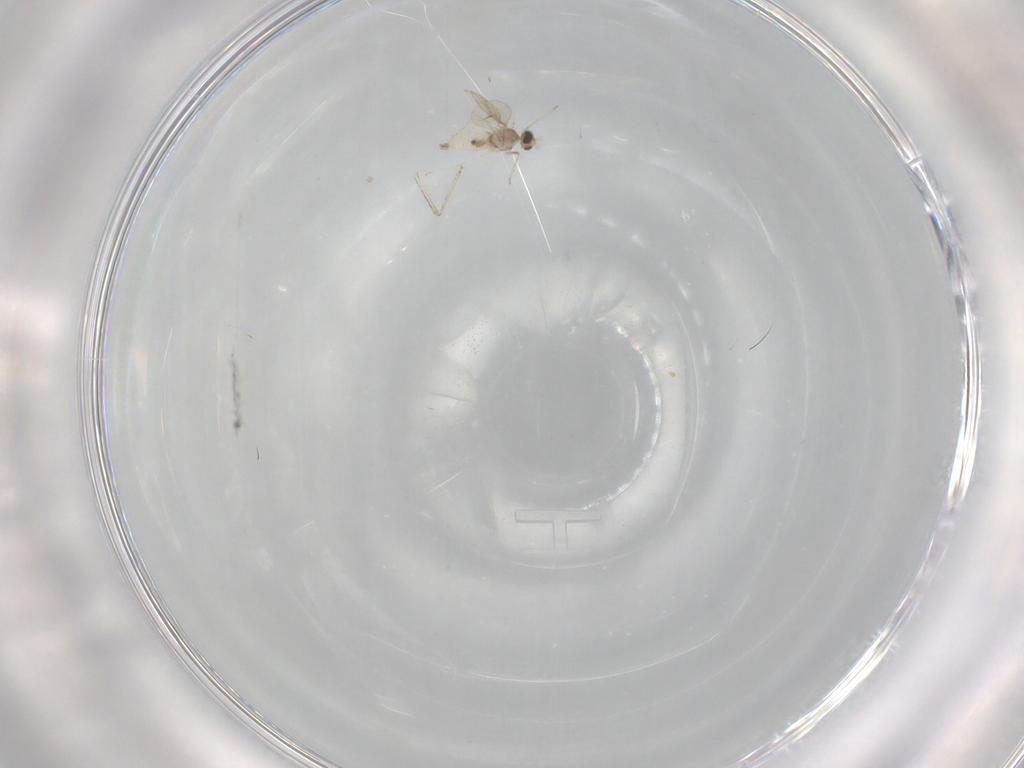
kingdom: Animalia
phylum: Arthropoda
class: Insecta
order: Diptera
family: Cecidomyiidae
